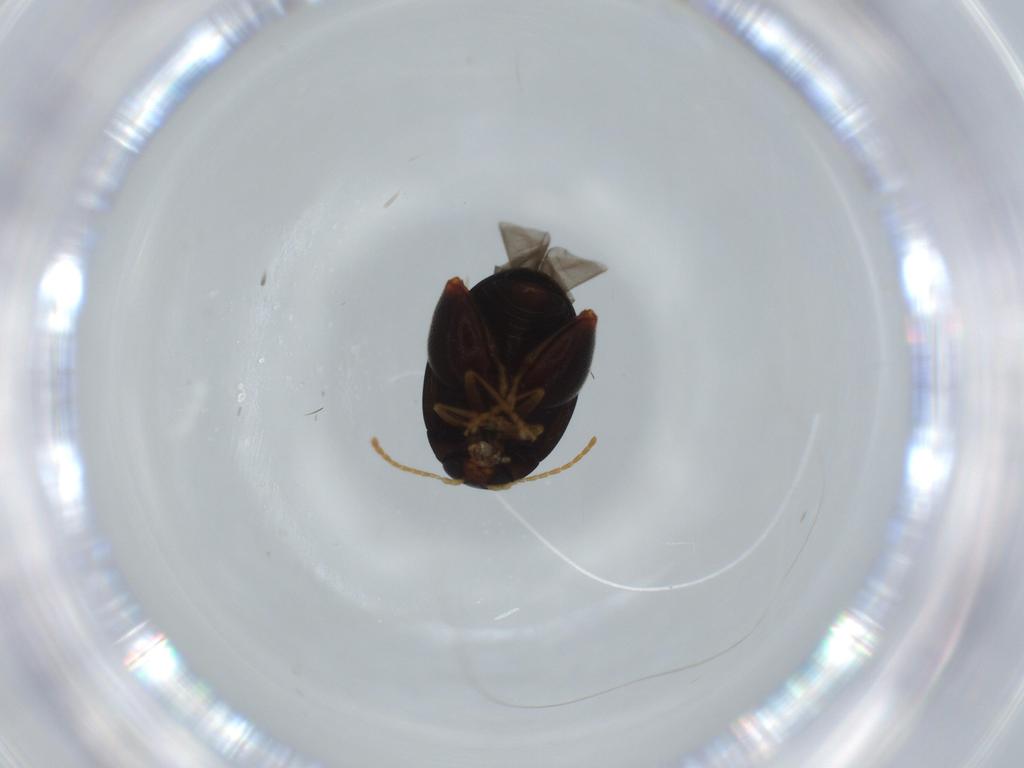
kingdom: Animalia
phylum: Arthropoda
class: Insecta
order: Coleoptera
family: Chrysomelidae
